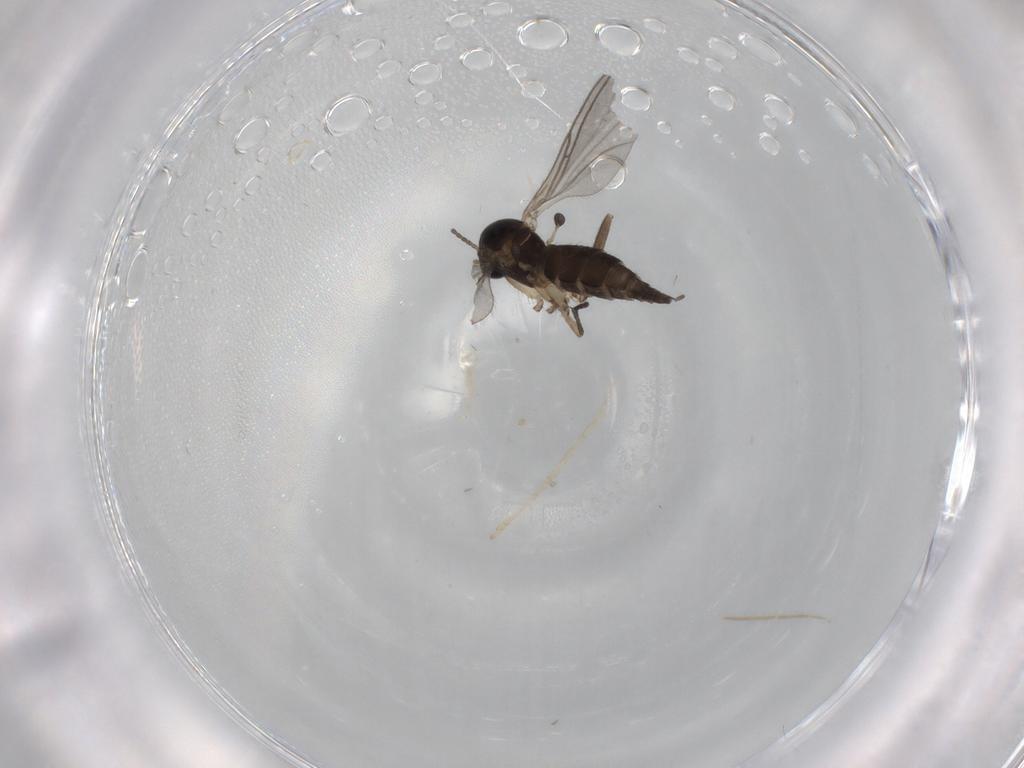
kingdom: Animalia
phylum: Arthropoda
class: Insecta
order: Diptera
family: Sciaridae
